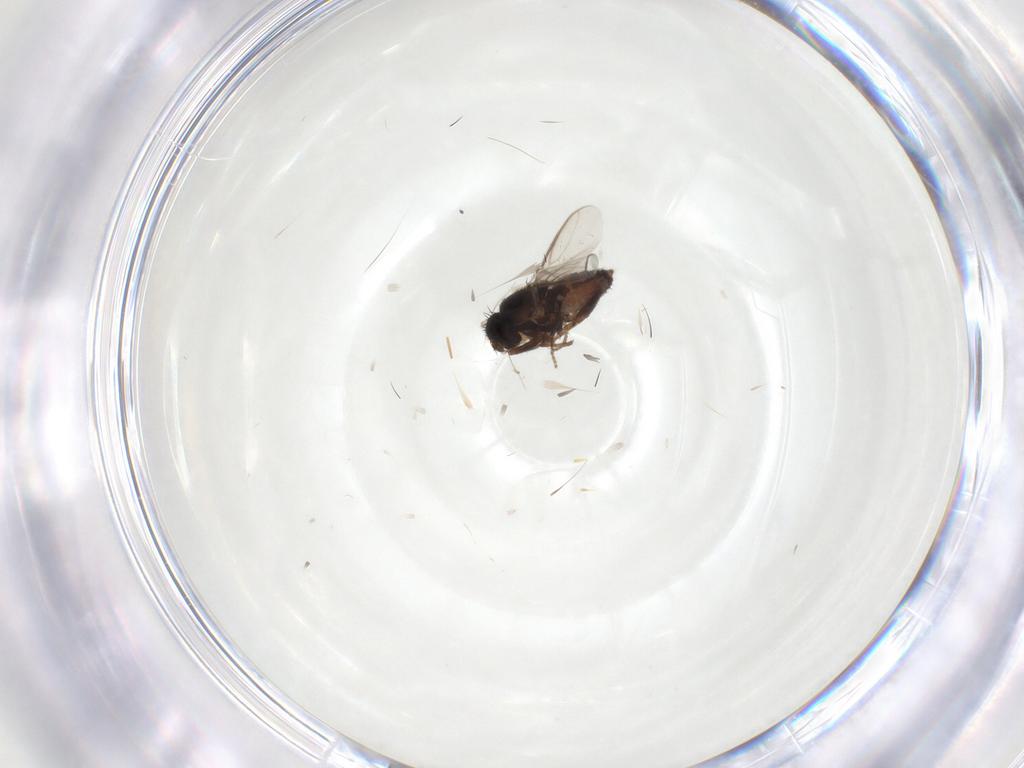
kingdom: Animalia
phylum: Arthropoda
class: Insecta
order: Diptera
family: Sphaeroceridae
